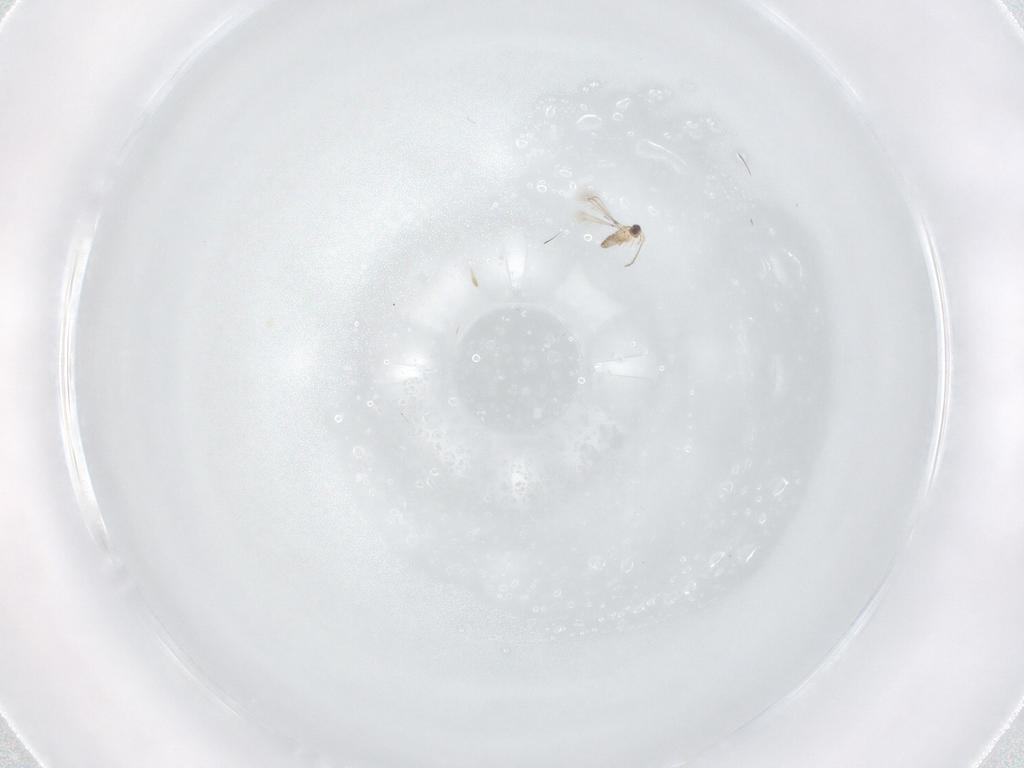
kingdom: Animalia
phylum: Arthropoda
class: Insecta
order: Diptera
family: Cecidomyiidae
